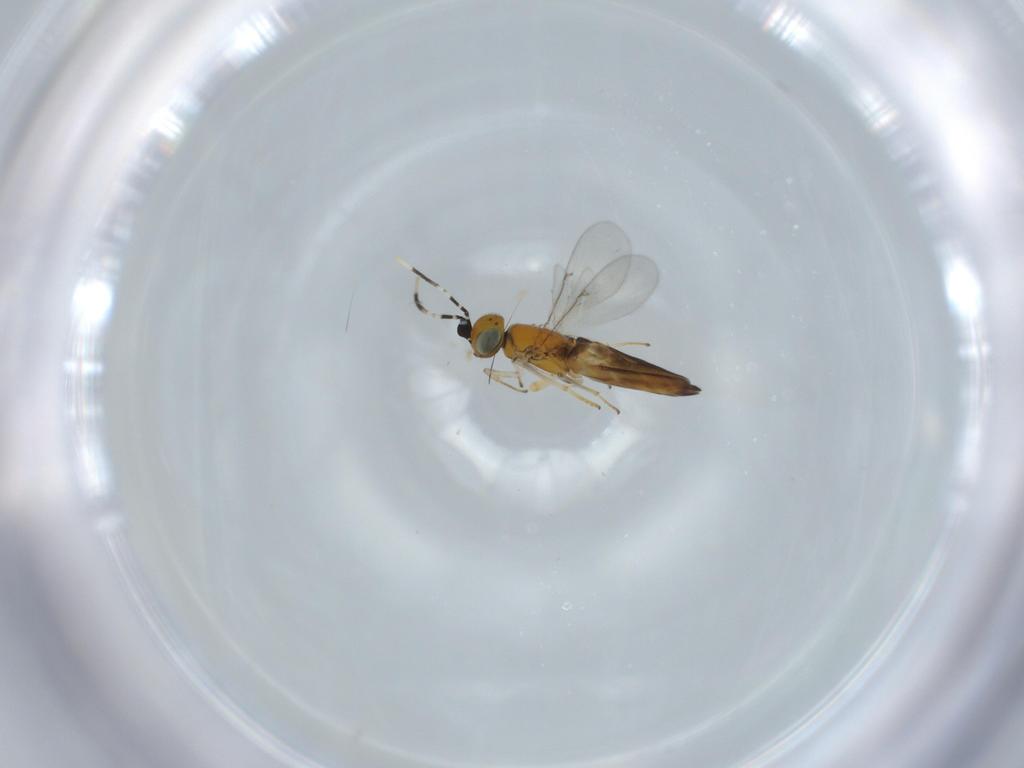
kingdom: Animalia
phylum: Arthropoda
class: Insecta
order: Hymenoptera
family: Encyrtidae
